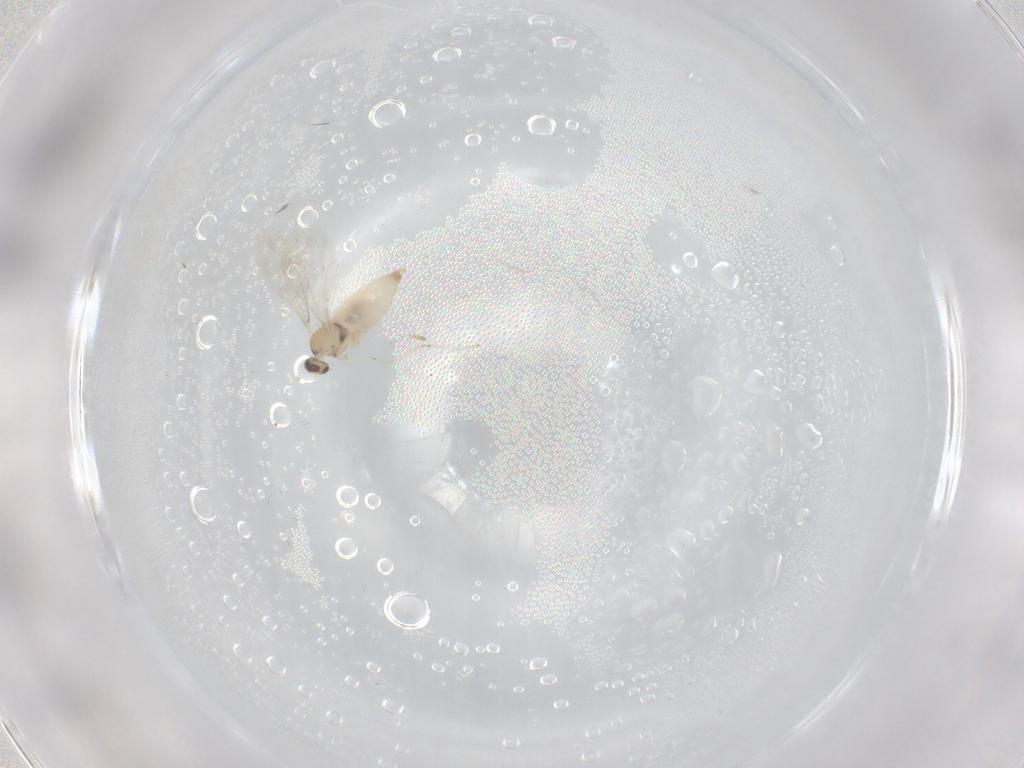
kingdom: Animalia
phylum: Arthropoda
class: Insecta
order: Diptera
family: Cecidomyiidae
